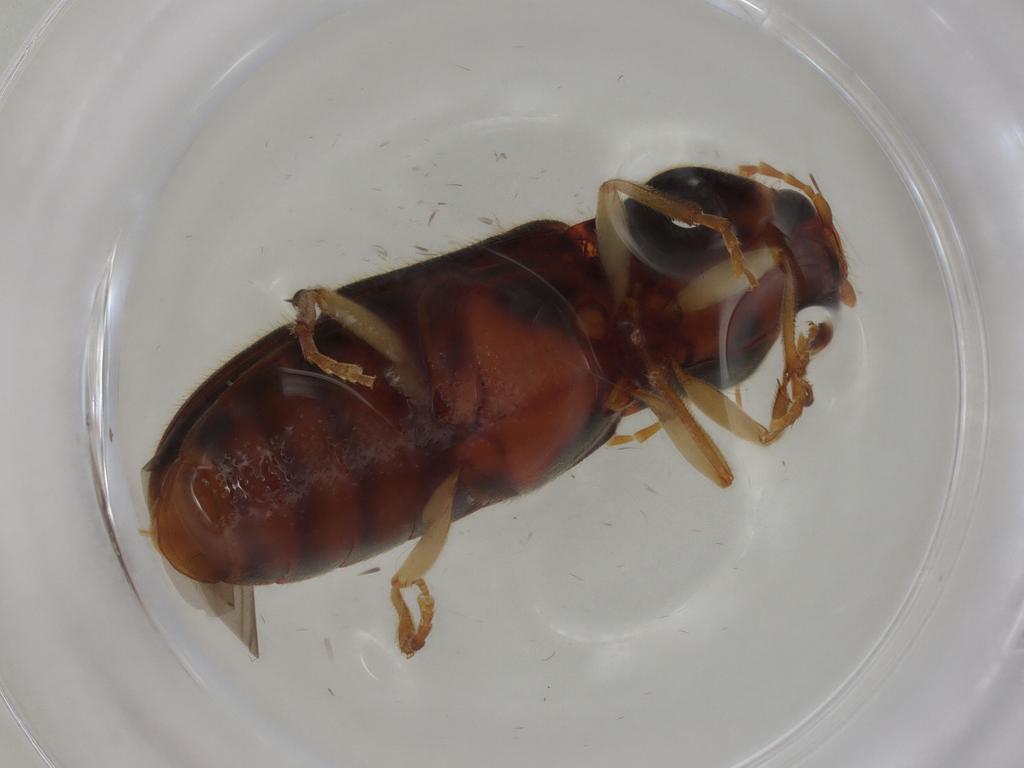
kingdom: Animalia
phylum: Arthropoda
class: Insecta
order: Coleoptera
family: Elateridae
